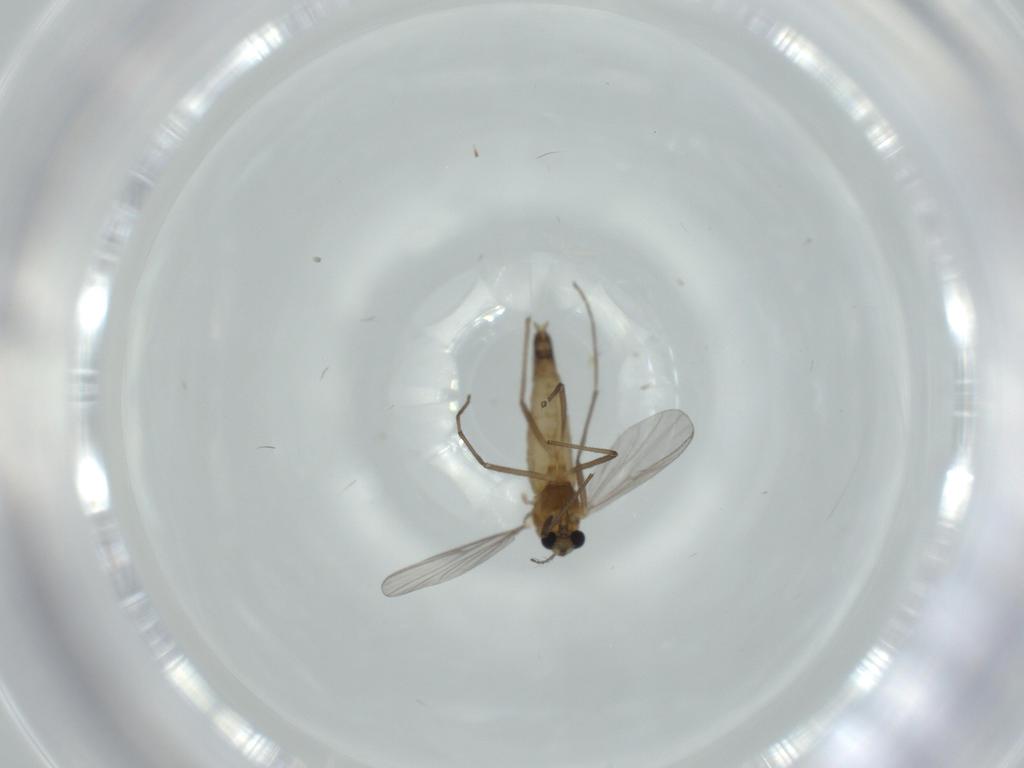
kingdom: Animalia
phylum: Arthropoda
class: Insecta
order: Diptera
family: Chironomidae
